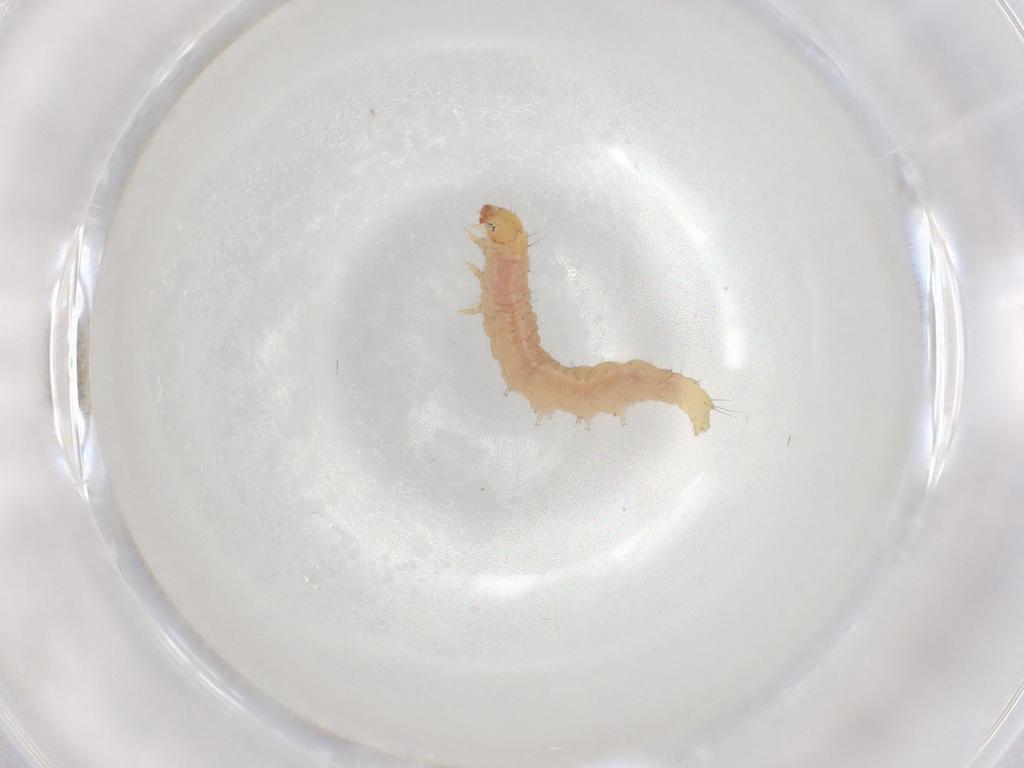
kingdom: Animalia
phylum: Arthropoda
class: Insecta
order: Lepidoptera
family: Gelechiidae
